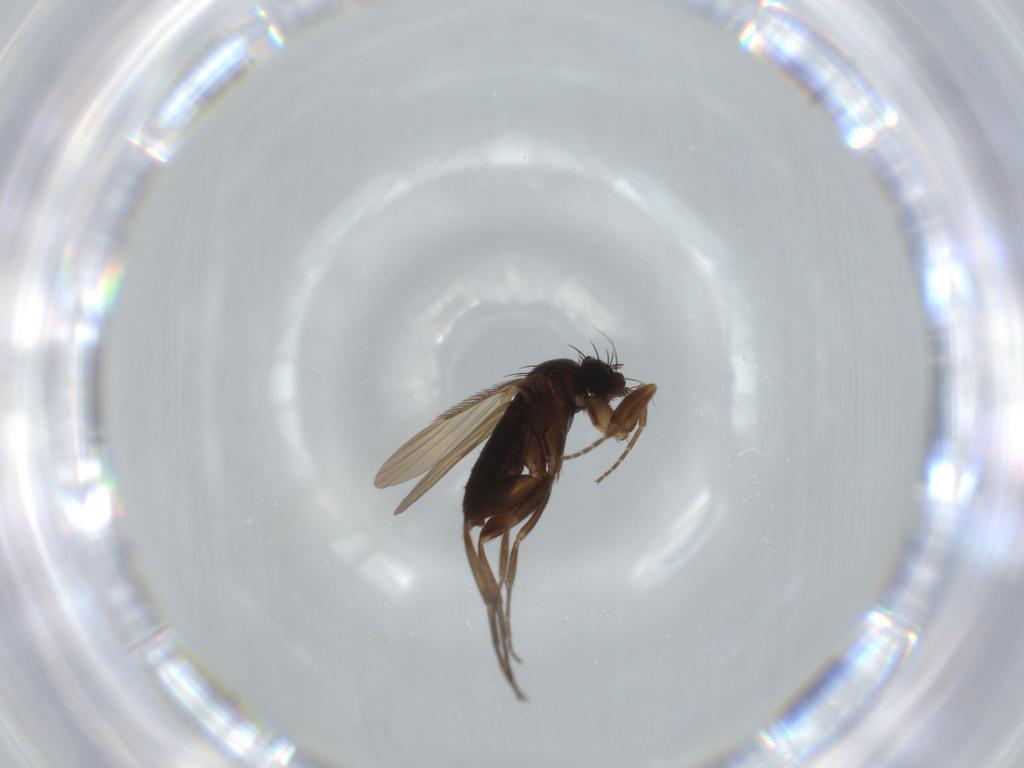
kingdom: Animalia
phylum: Arthropoda
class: Insecta
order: Diptera
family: Phoridae
